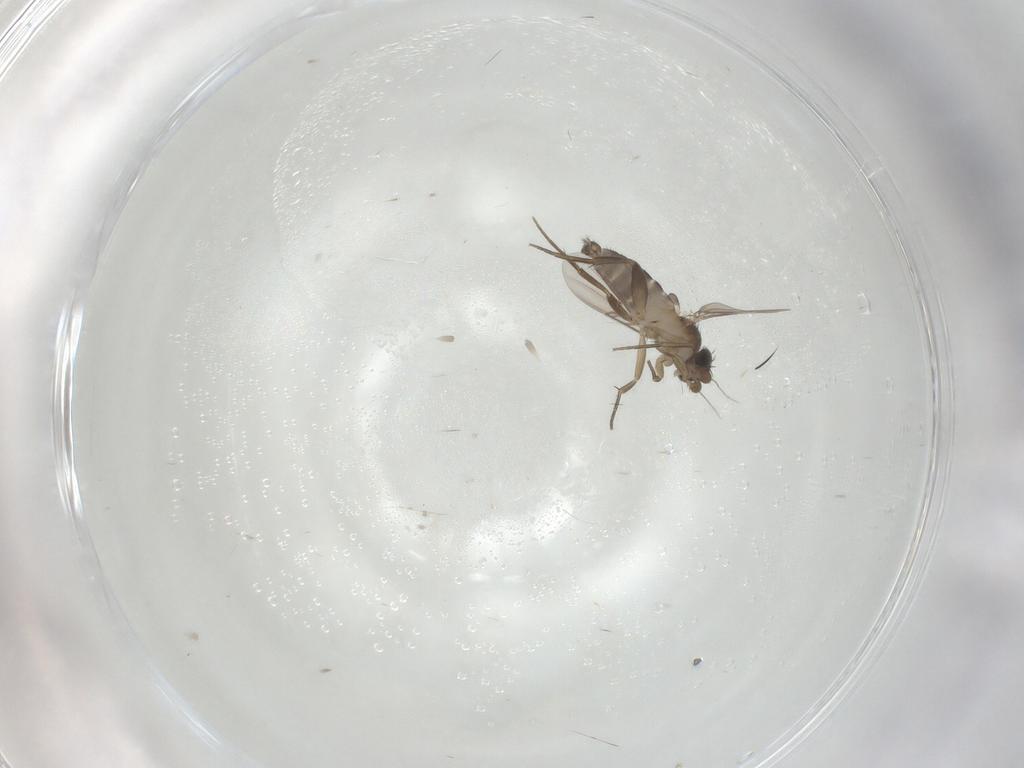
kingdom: Animalia
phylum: Arthropoda
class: Insecta
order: Diptera
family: Phoridae
